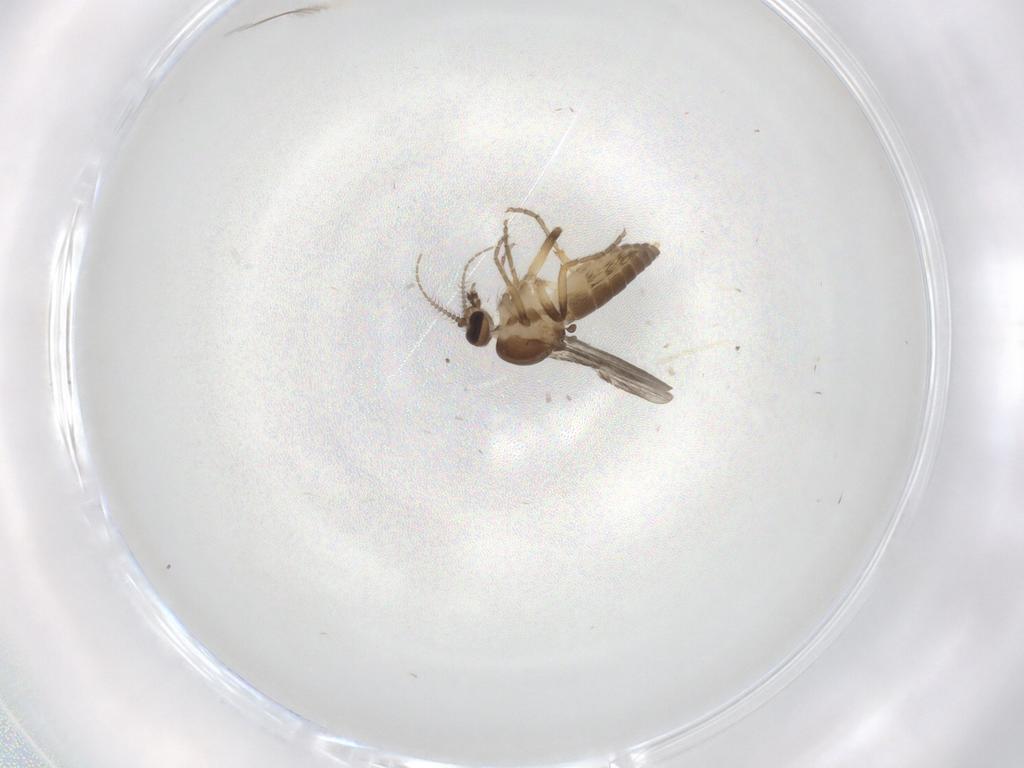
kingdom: Animalia
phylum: Arthropoda
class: Insecta
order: Diptera
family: Ceratopogonidae
